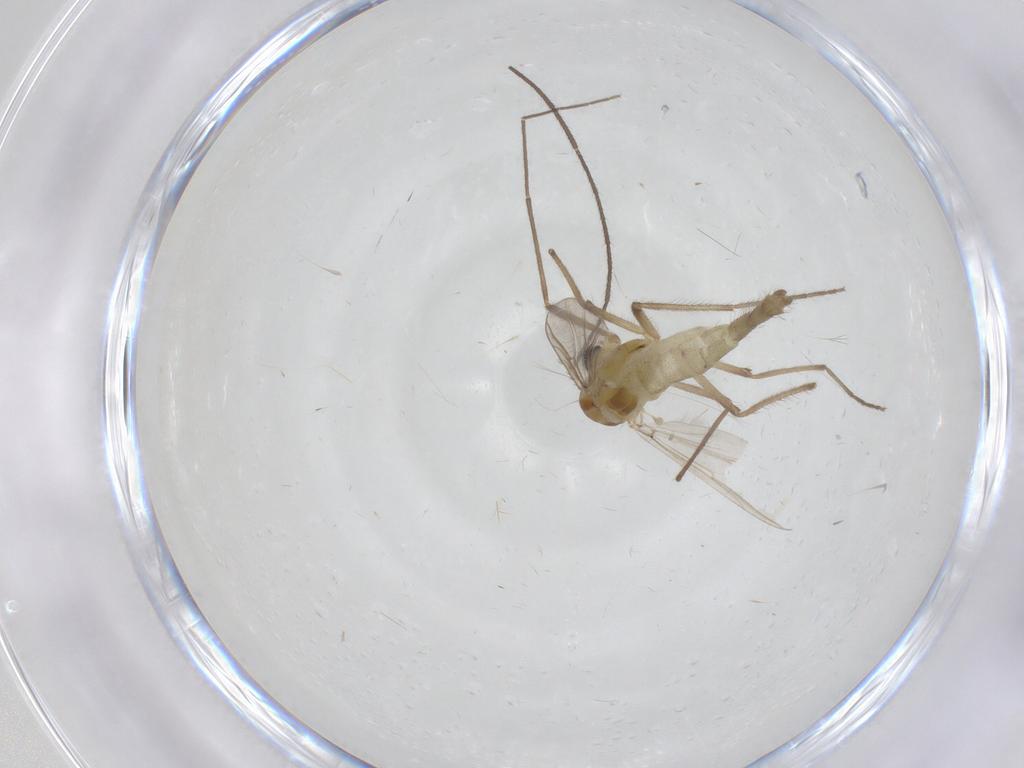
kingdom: Animalia
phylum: Arthropoda
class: Insecta
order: Diptera
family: Chironomidae
